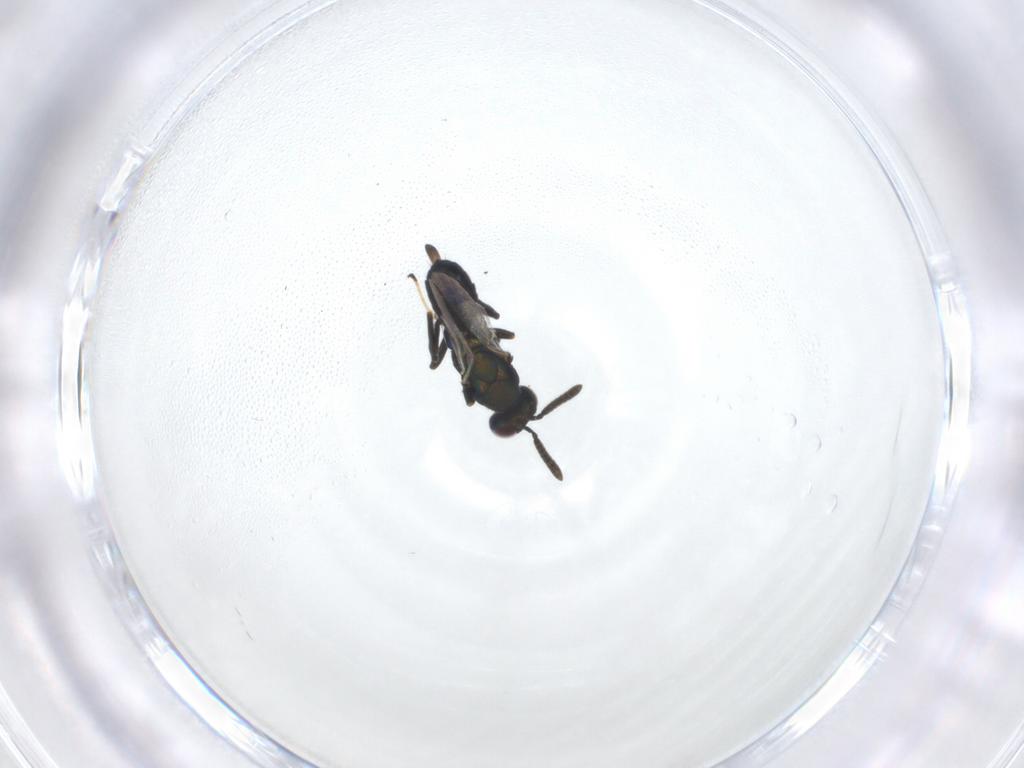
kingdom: Animalia
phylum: Arthropoda
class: Insecta
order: Hymenoptera
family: Torymidae
